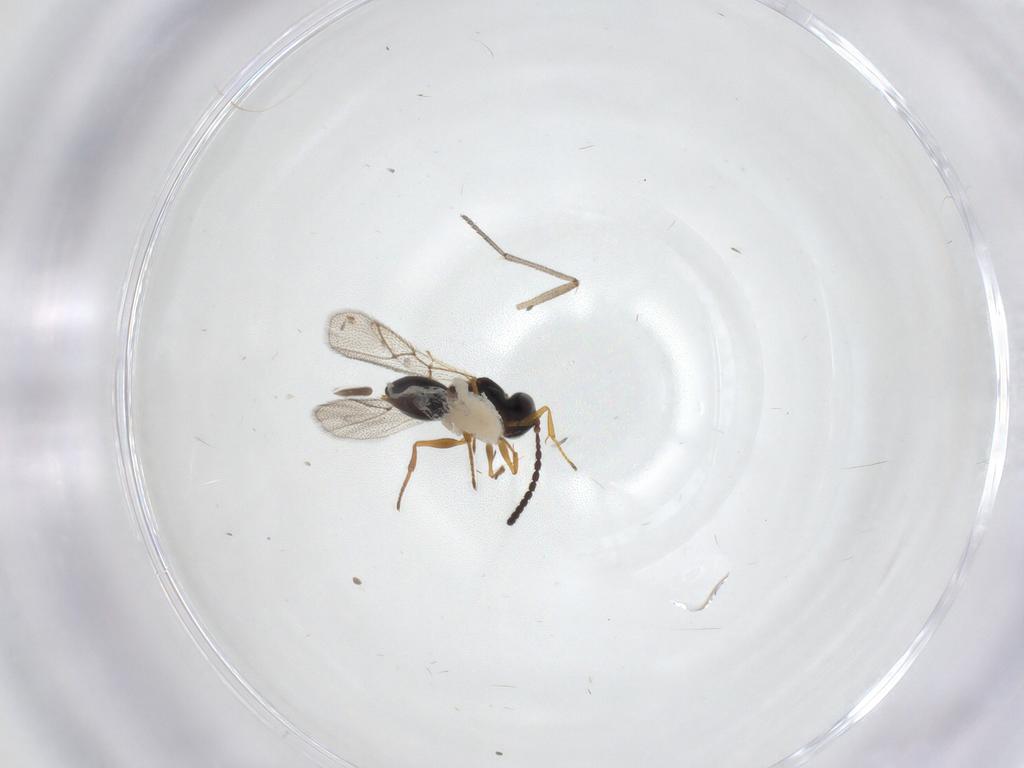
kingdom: Animalia
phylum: Arthropoda
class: Insecta
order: Hymenoptera
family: Figitidae
